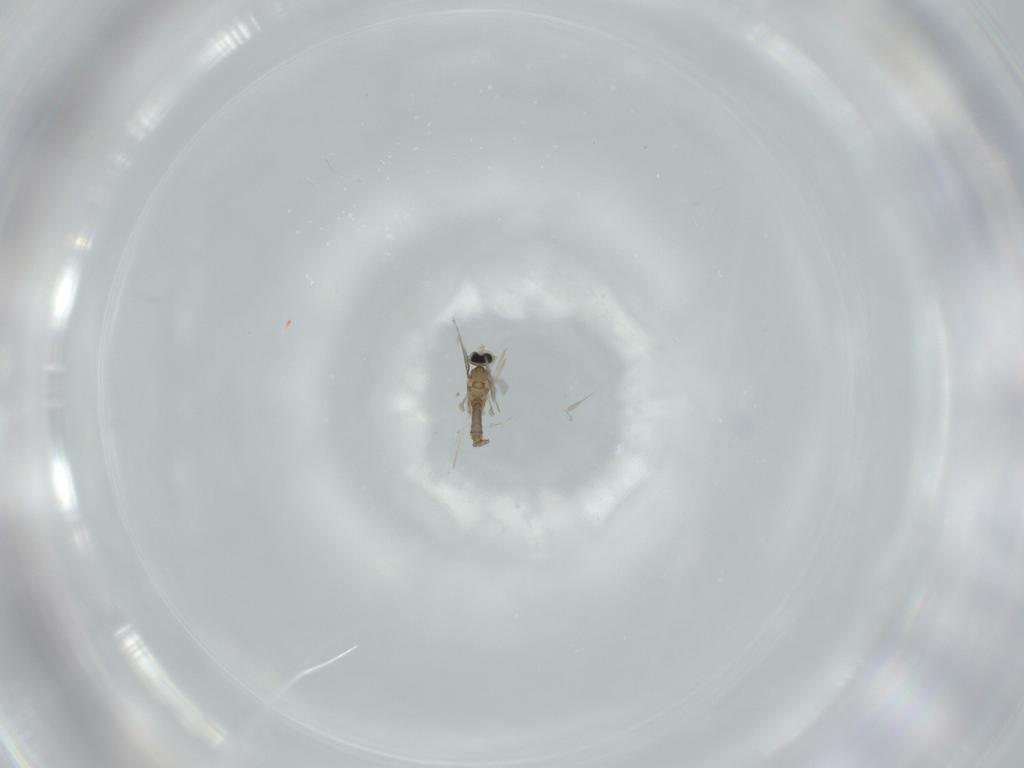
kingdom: Animalia
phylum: Arthropoda
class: Insecta
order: Diptera
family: Cecidomyiidae
